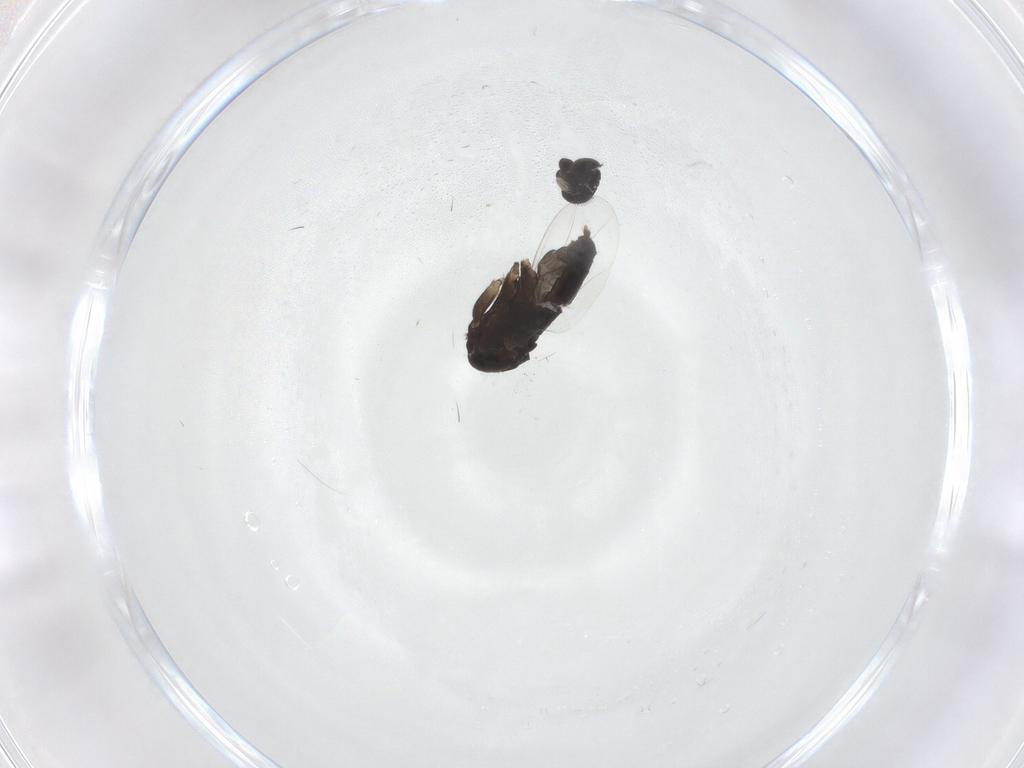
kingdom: Animalia
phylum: Arthropoda
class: Insecta
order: Diptera
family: Phoridae
